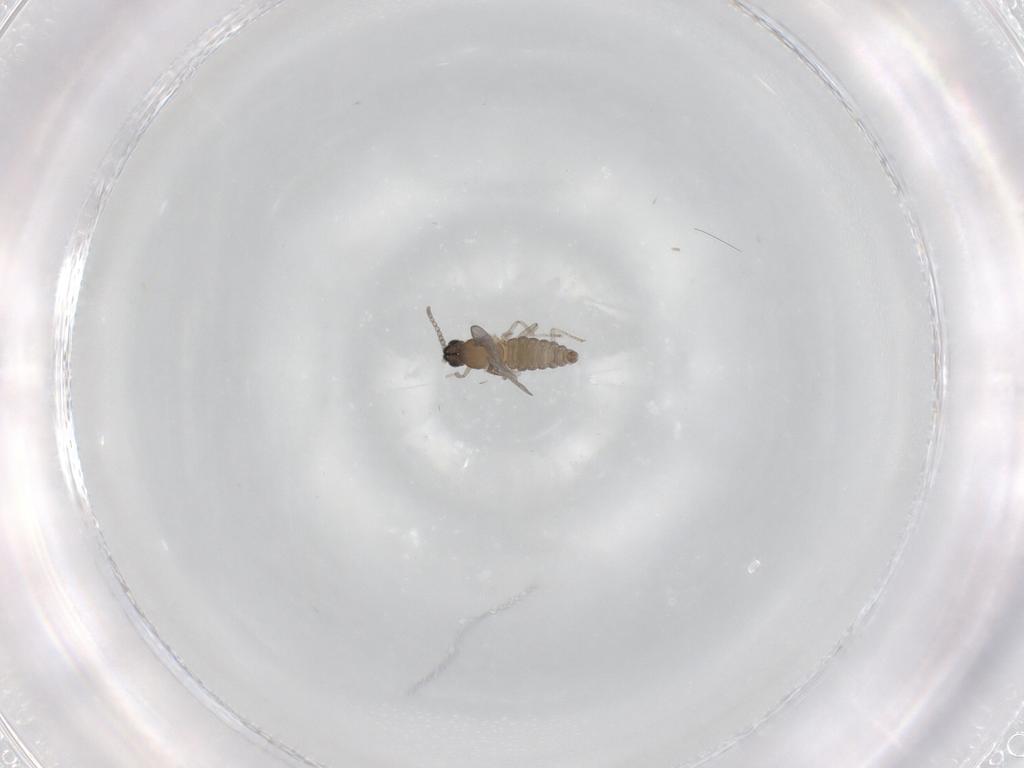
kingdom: Animalia
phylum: Arthropoda
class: Insecta
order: Diptera
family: Cecidomyiidae
